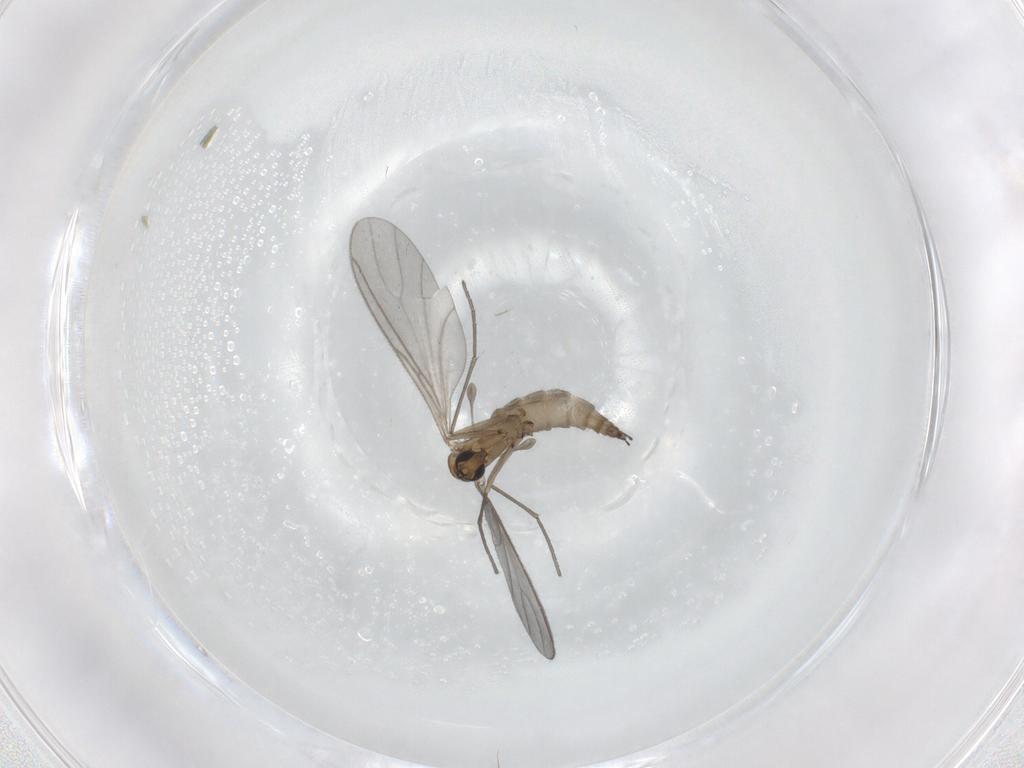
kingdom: Animalia
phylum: Arthropoda
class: Insecta
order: Diptera
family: Sciaridae
